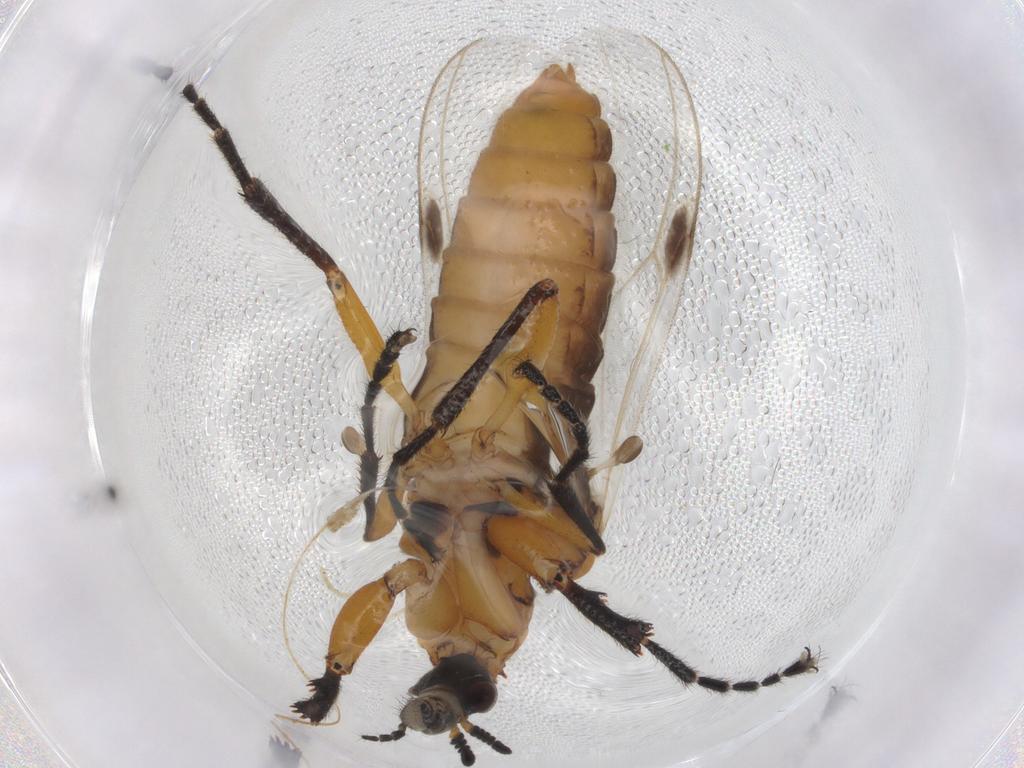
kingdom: Animalia
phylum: Arthropoda
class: Insecta
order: Diptera
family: Bibionidae
